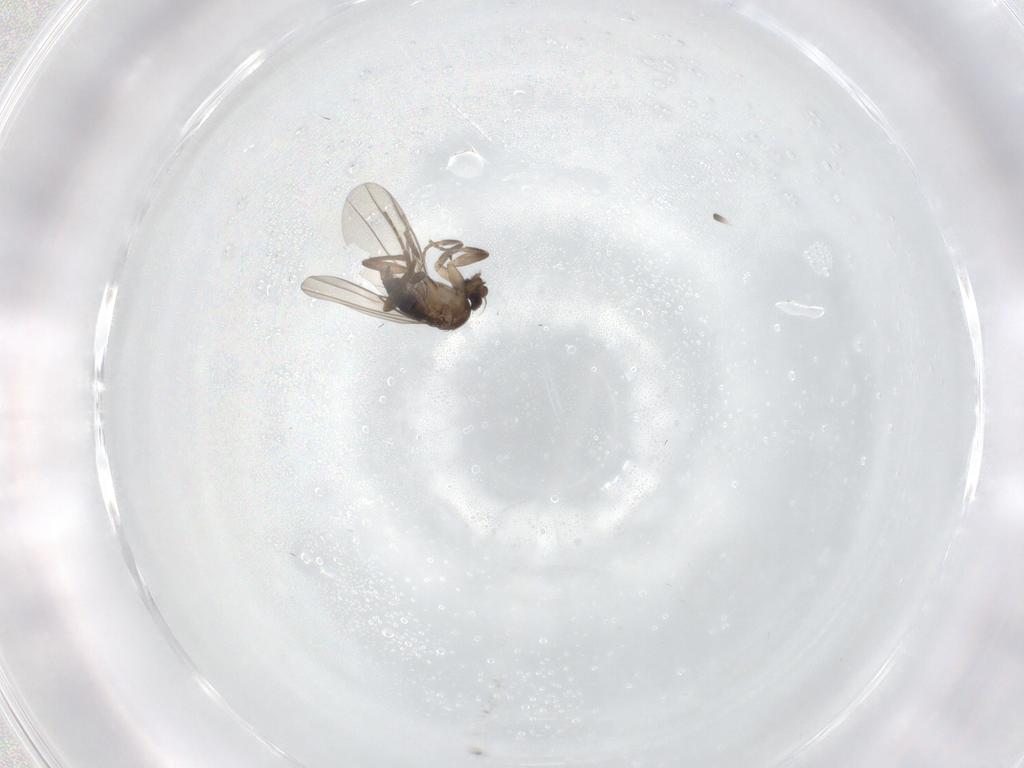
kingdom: Animalia
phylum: Arthropoda
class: Insecta
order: Diptera
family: Phoridae
